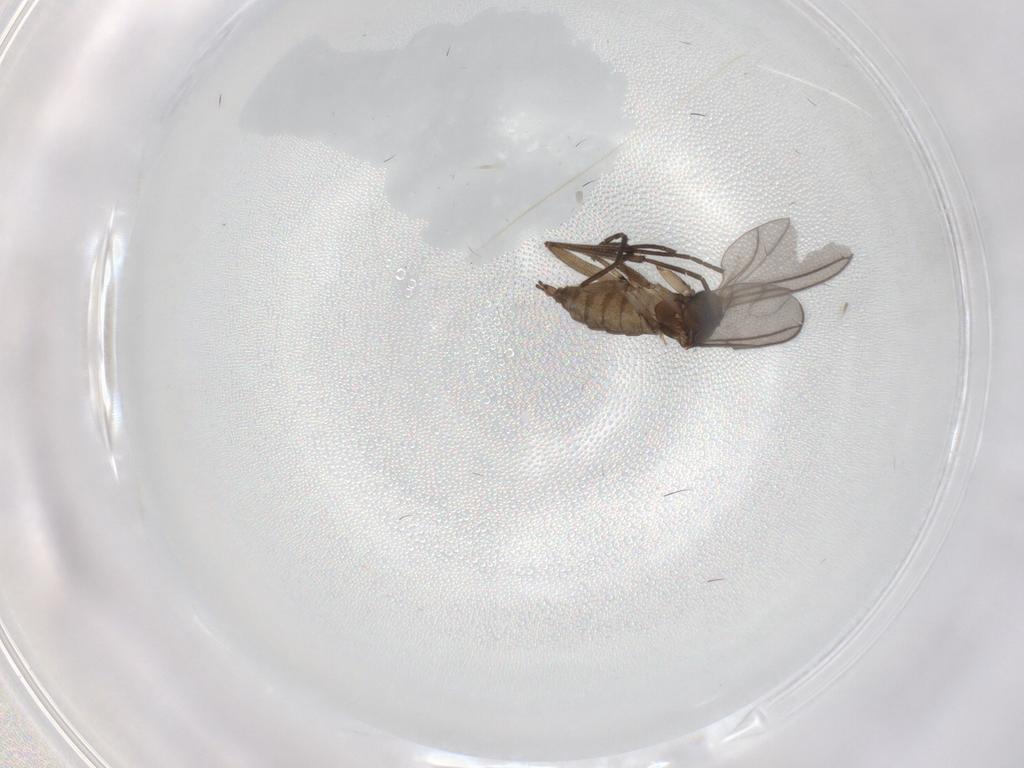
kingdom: Animalia
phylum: Arthropoda
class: Insecta
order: Diptera
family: Sciaridae
